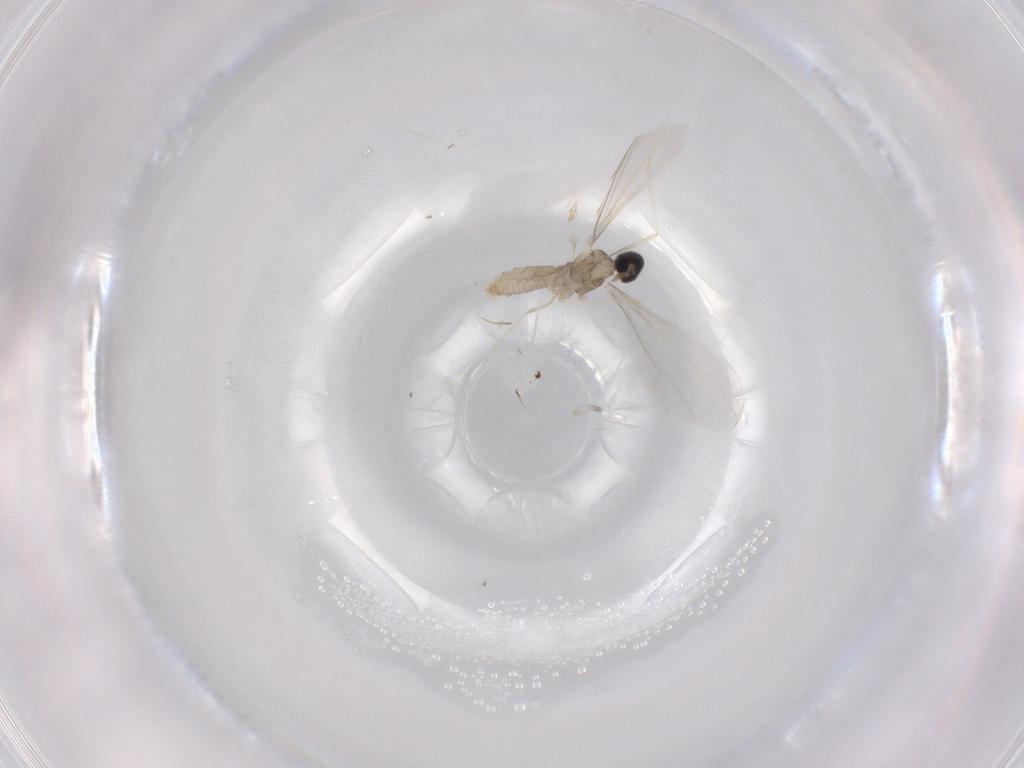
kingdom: Animalia
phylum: Arthropoda
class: Insecta
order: Diptera
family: Cecidomyiidae
